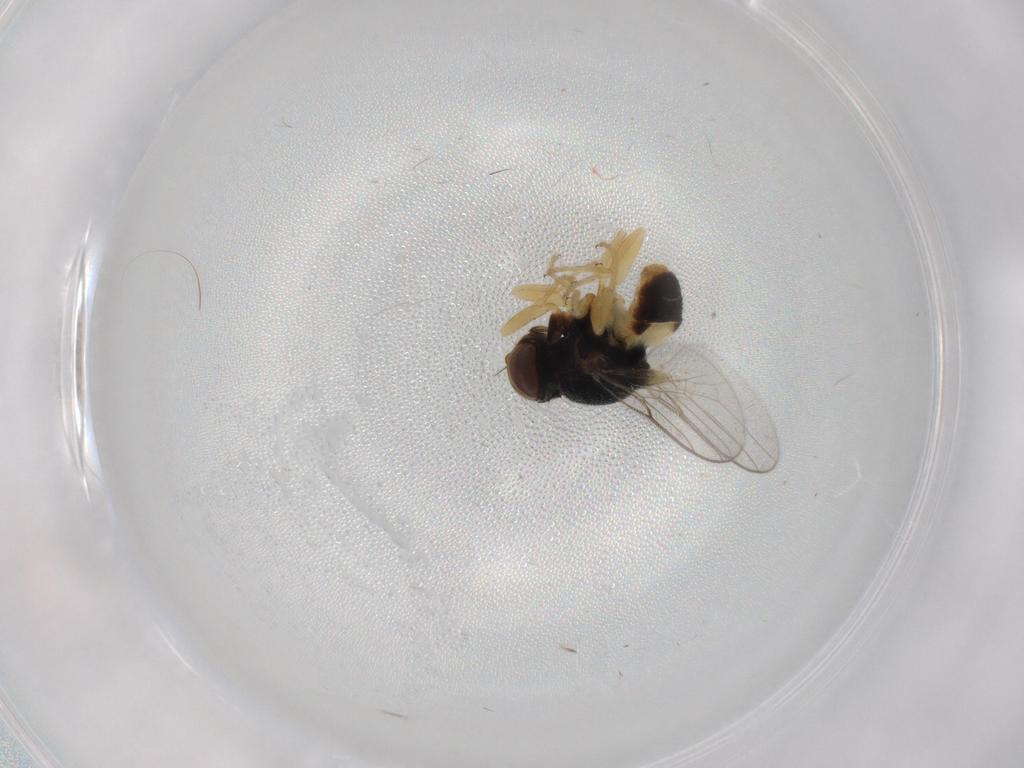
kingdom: Animalia
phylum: Arthropoda
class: Insecta
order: Diptera
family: Chloropidae
